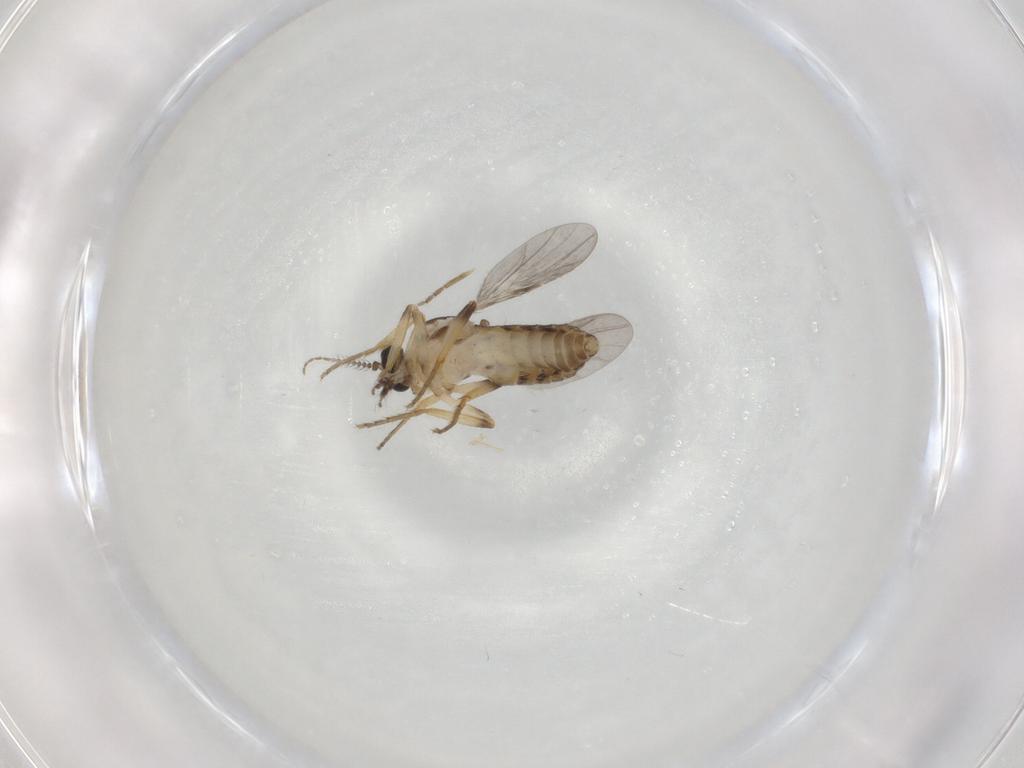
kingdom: Animalia
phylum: Arthropoda
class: Insecta
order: Diptera
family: Ceratopogonidae
